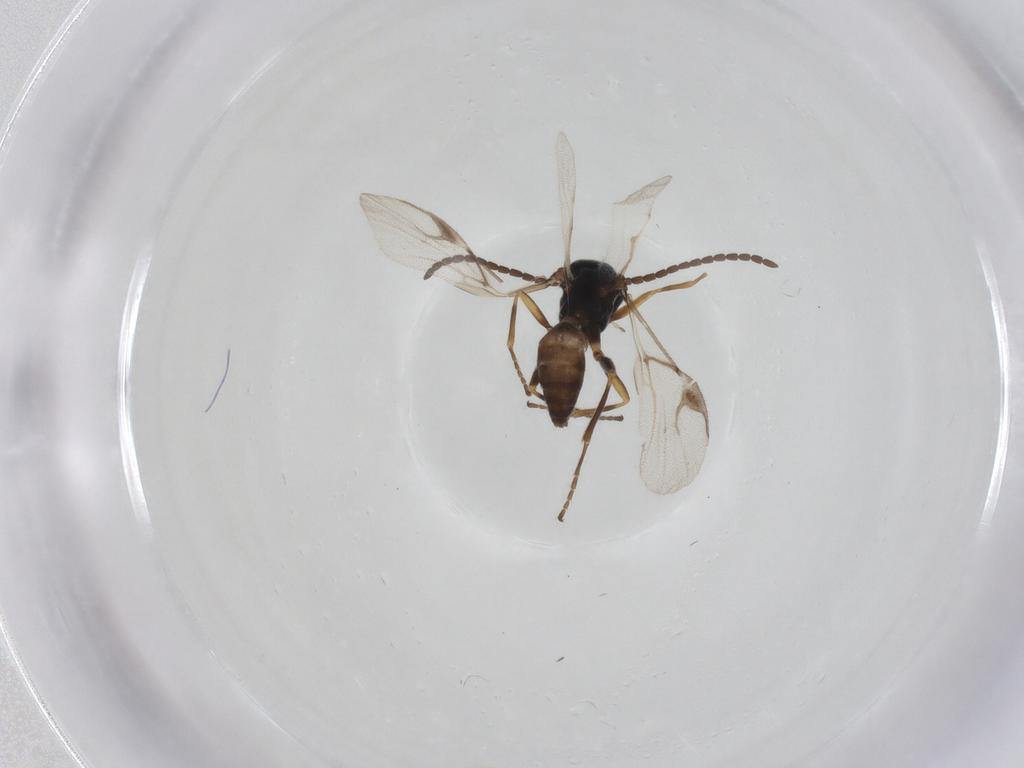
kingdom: Animalia
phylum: Arthropoda
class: Insecta
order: Hymenoptera
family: Braconidae
